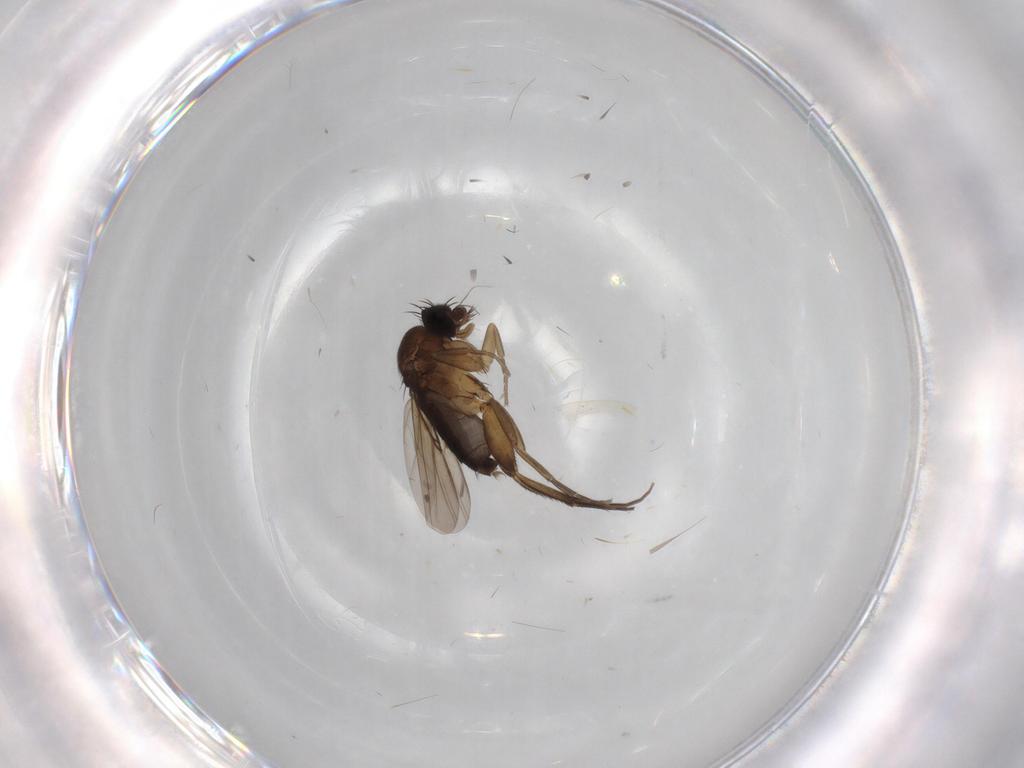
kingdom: Animalia
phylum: Arthropoda
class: Insecta
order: Diptera
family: Phoridae
